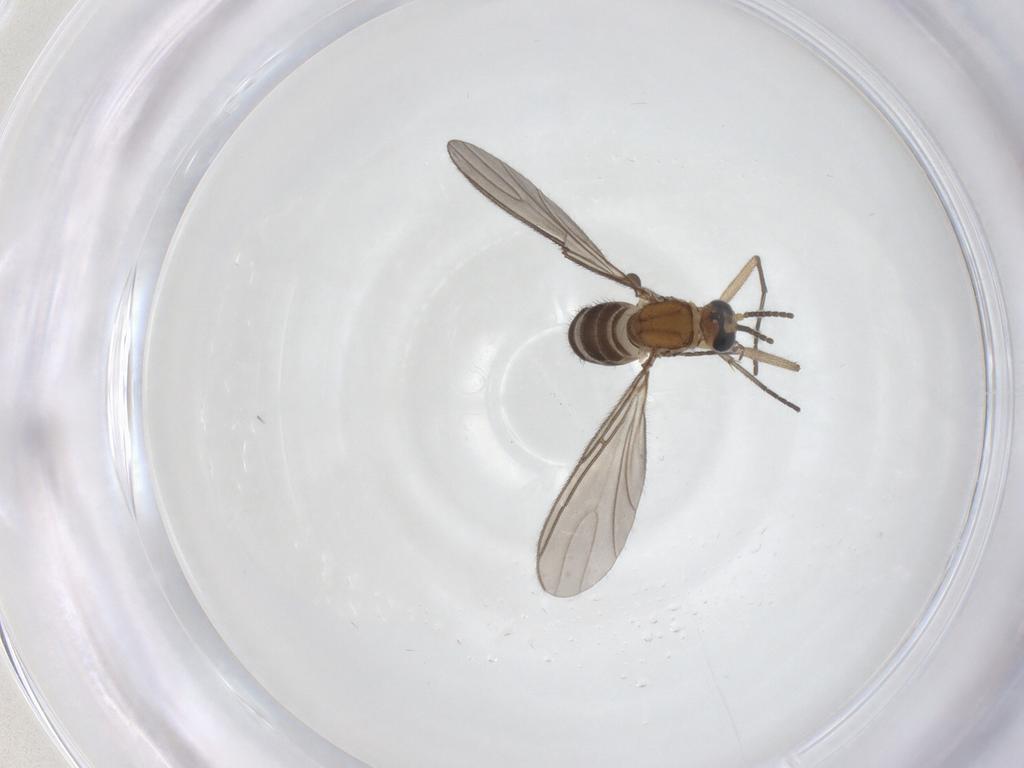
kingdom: Animalia
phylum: Arthropoda
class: Insecta
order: Diptera
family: Sciaridae
